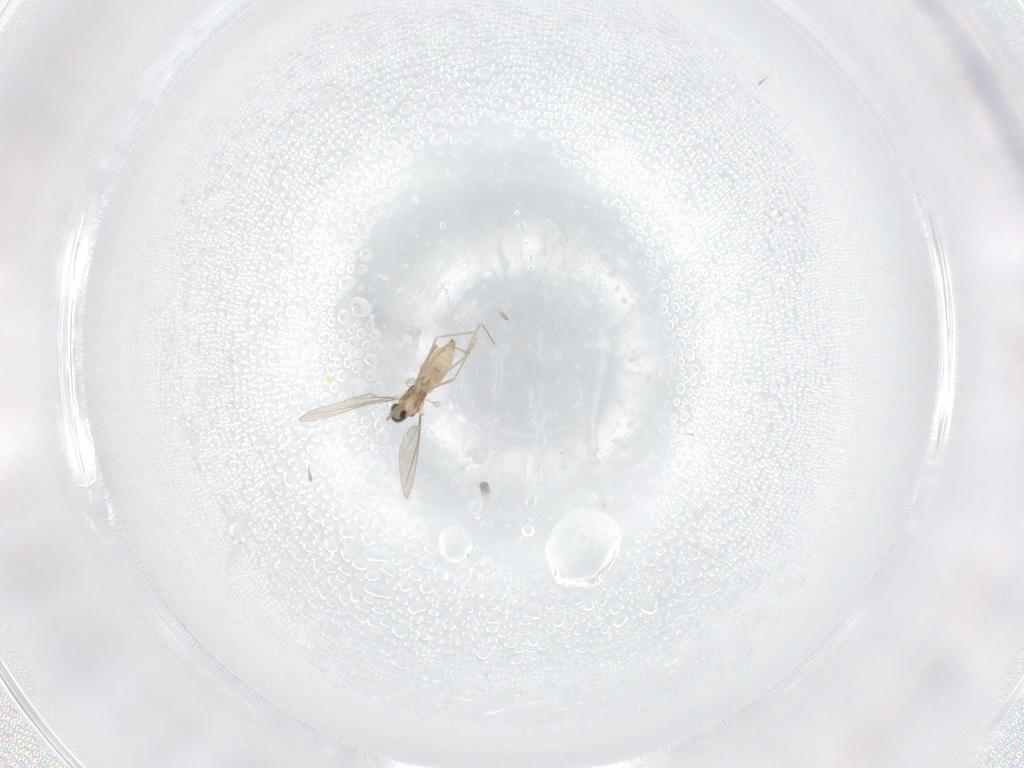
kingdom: Animalia
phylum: Arthropoda
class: Insecta
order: Diptera
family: Cecidomyiidae
